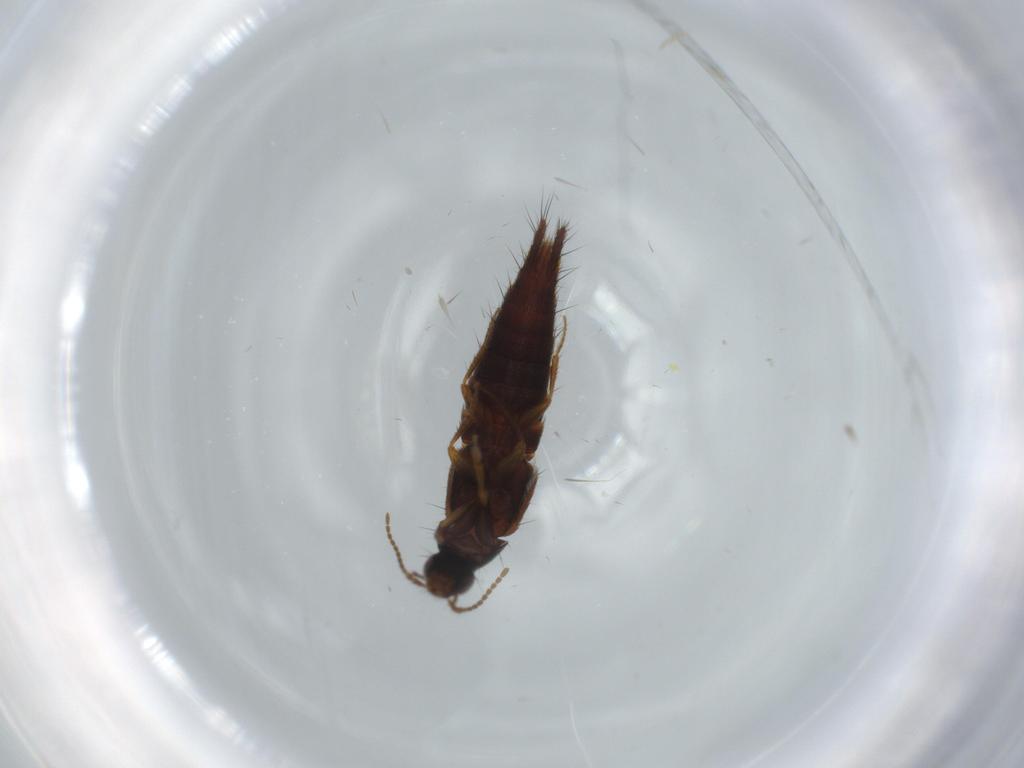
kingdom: Animalia
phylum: Arthropoda
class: Insecta
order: Coleoptera
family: Staphylinidae
